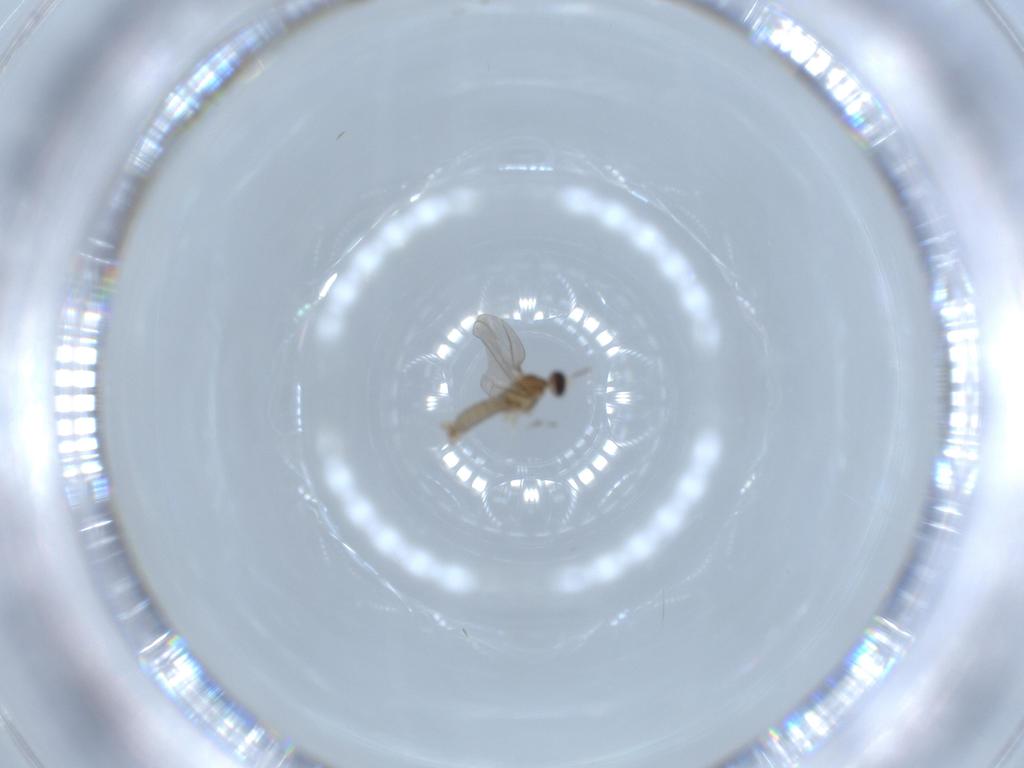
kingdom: Animalia
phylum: Arthropoda
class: Insecta
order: Diptera
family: Cecidomyiidae
